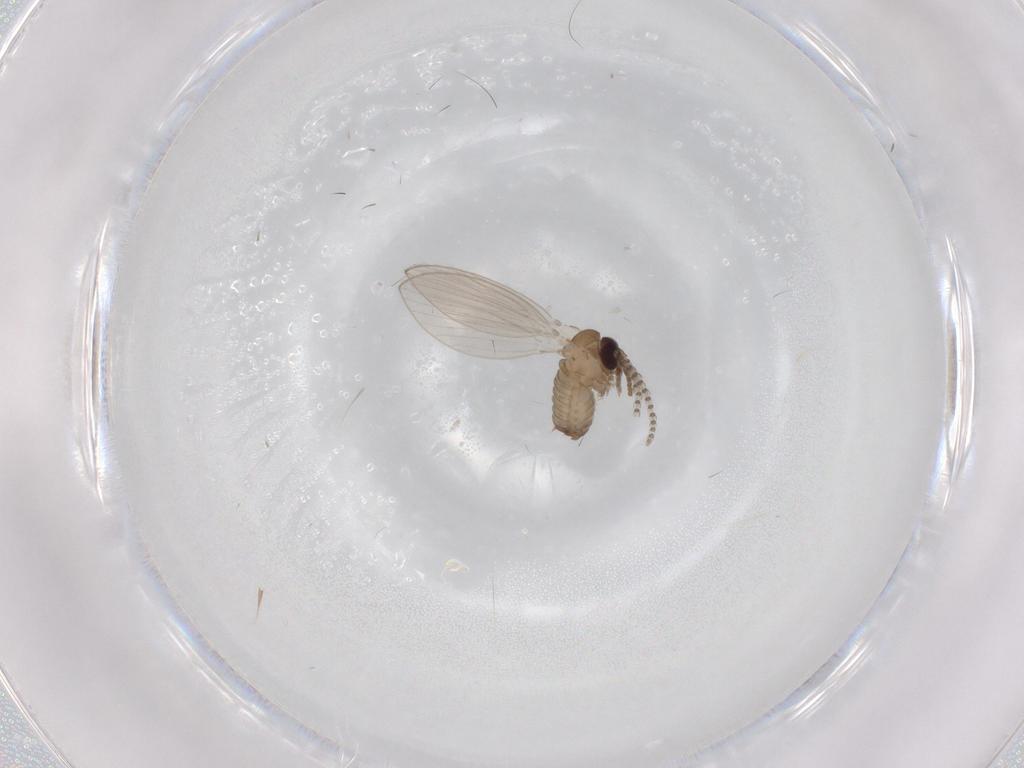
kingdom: Animalia
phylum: Arthropoda
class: Insecta
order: Diptera
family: Psychodidae
